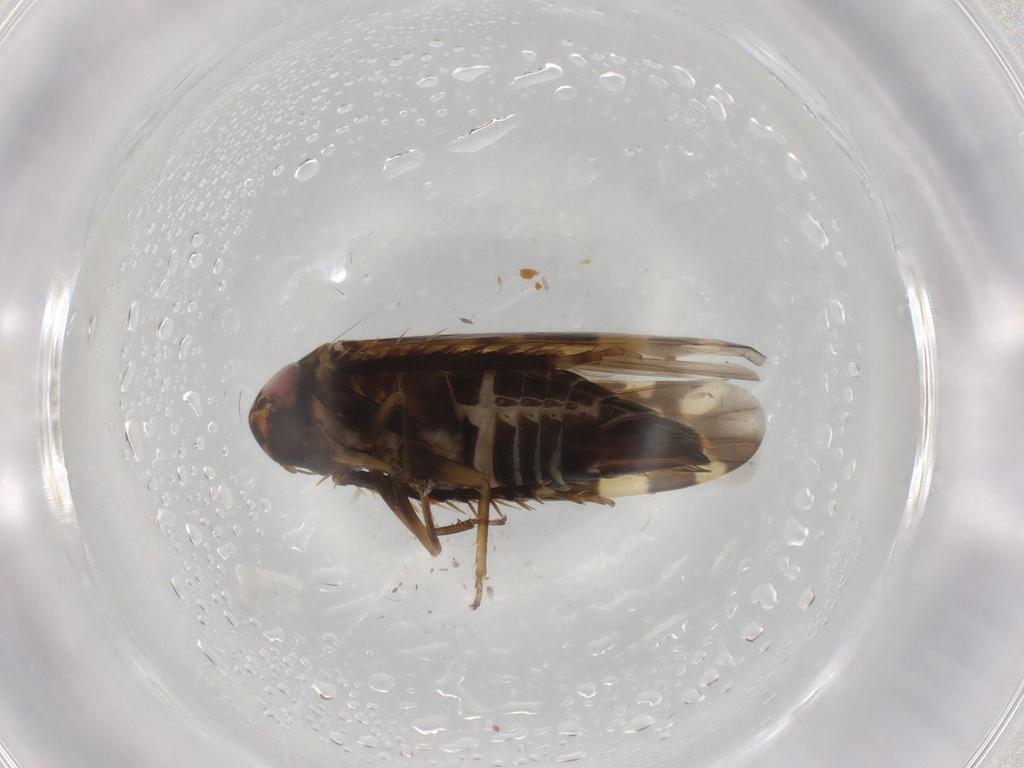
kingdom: Animalia
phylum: Arthropoda
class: Insecta
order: Hemiptera
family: Cicadellidae
